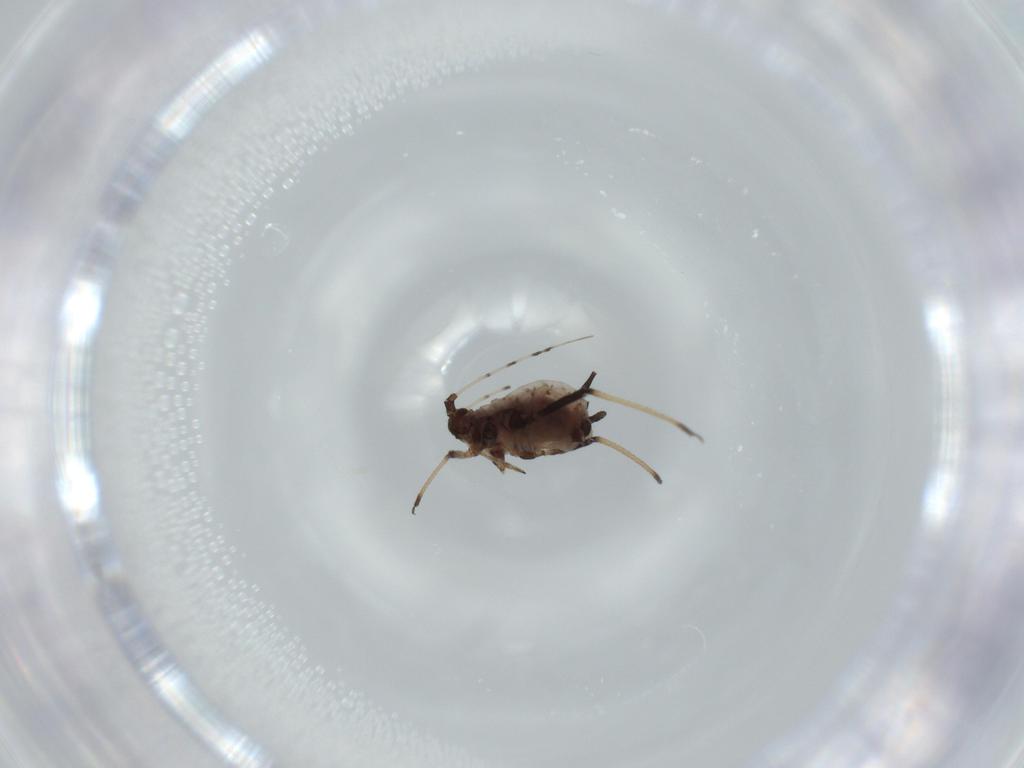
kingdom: Animalia
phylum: Arthropoda
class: Insecta
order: Hemiptera
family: Aphididae
